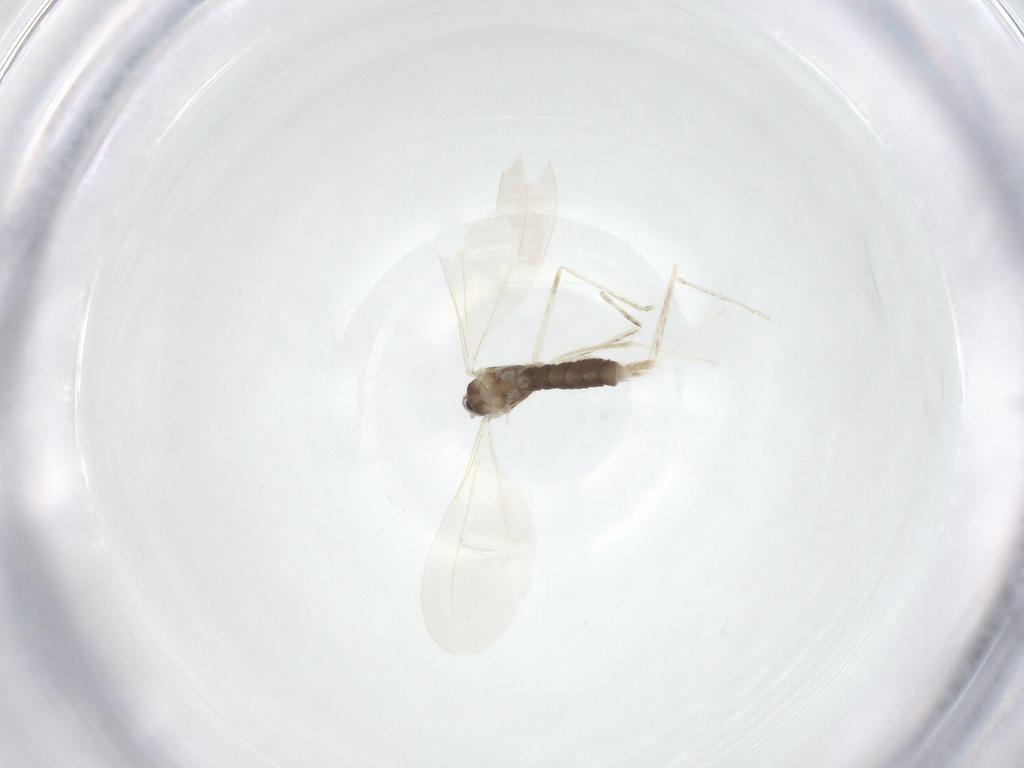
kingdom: Animalia
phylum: Arthropoda
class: Insecta
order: Diptera
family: Cecidomyiidae
